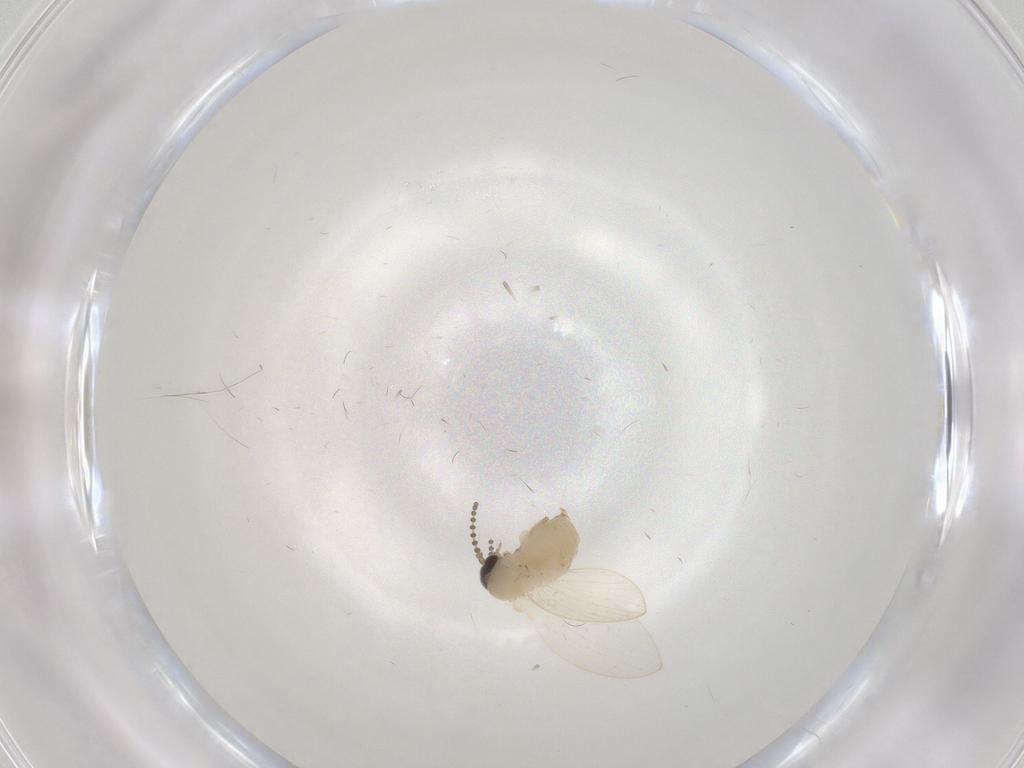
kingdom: Animalia
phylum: Arthropoda
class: Insecta
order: Diptera
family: Psychodidae
